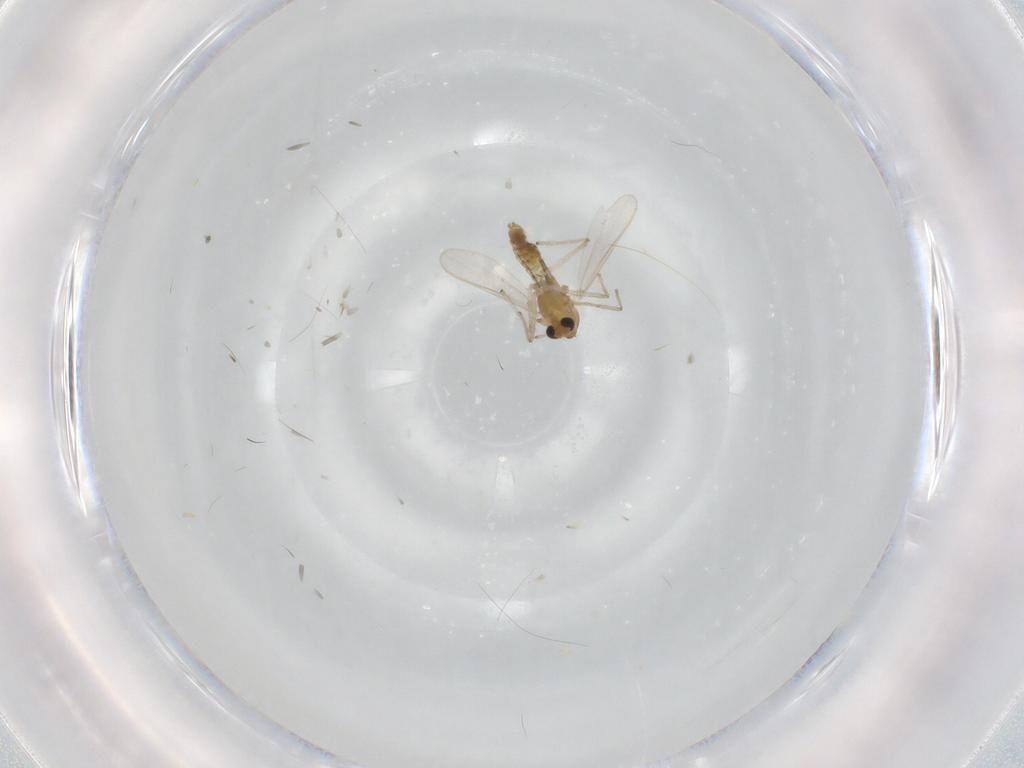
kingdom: Animalia
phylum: Arthropoda
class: Insecta
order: Diptera
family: Chironomidae
